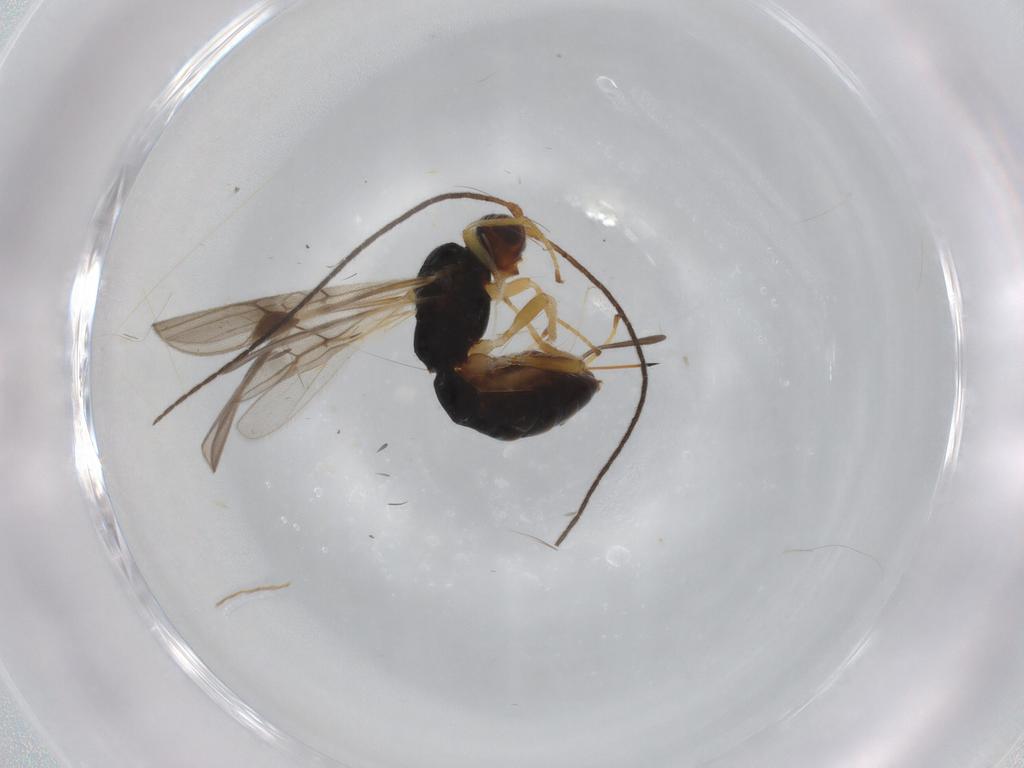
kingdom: Animalia
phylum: Arthropoda
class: Insecta
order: Hymenoptera
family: Braconidae
